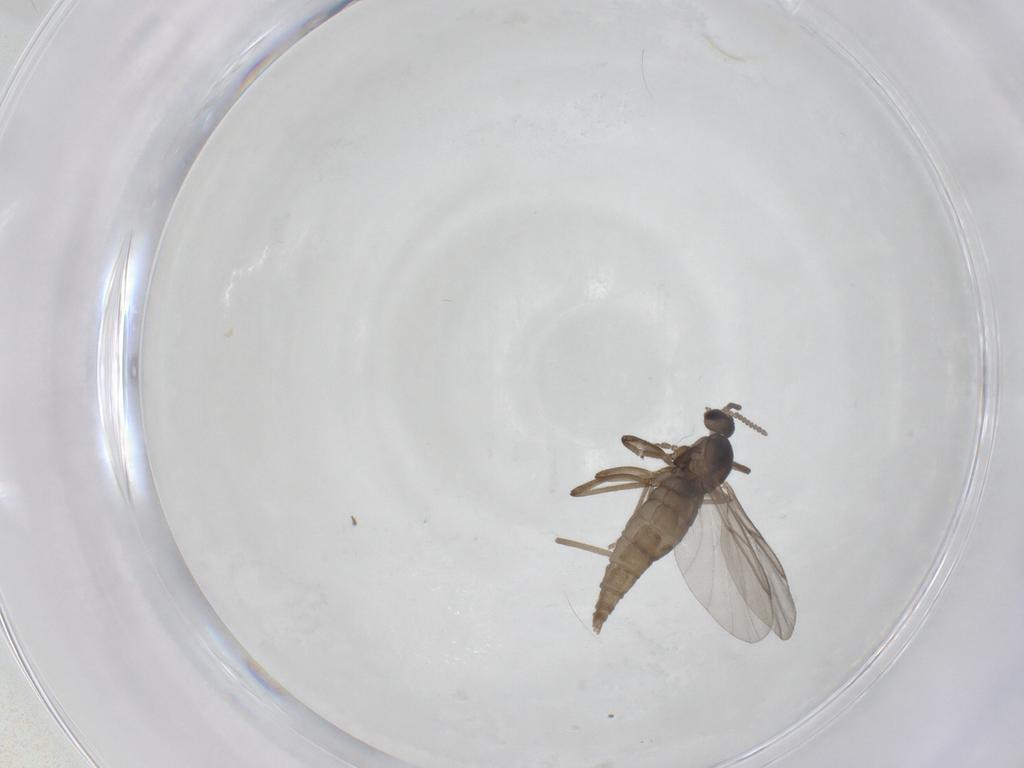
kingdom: Animalia
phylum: Arthropoda
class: Insecta
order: Diptera
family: Cecidomyiidae
